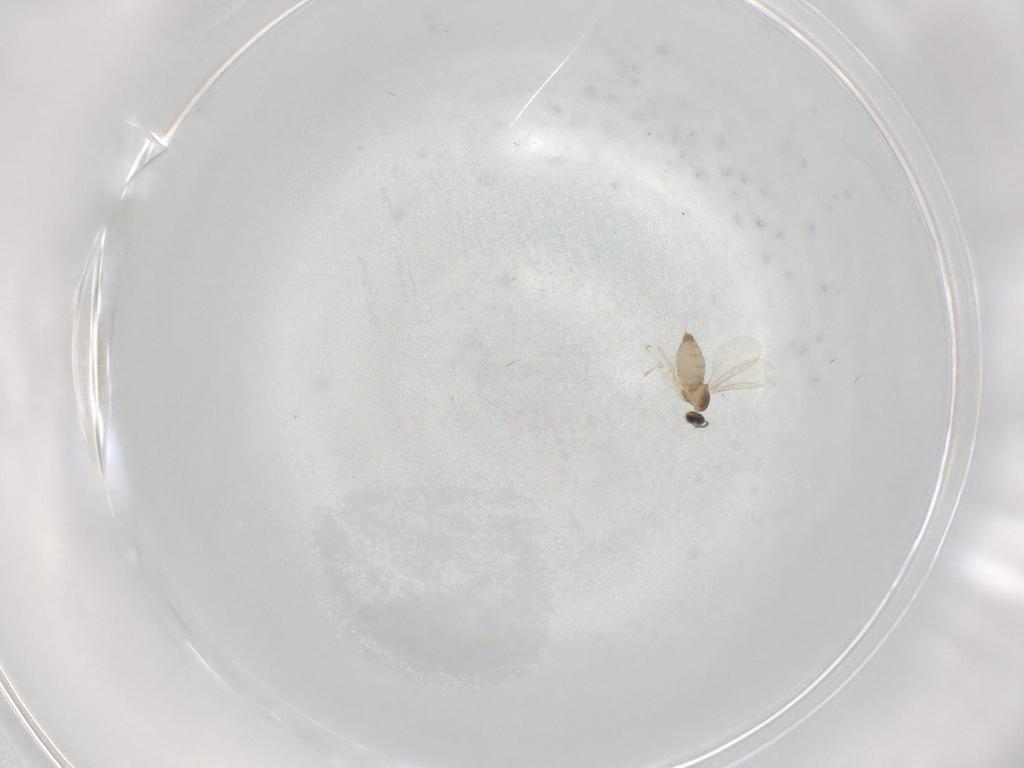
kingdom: Animalia
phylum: Arthropoda
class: Insecta
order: Diptera
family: Cecidomyiidae
